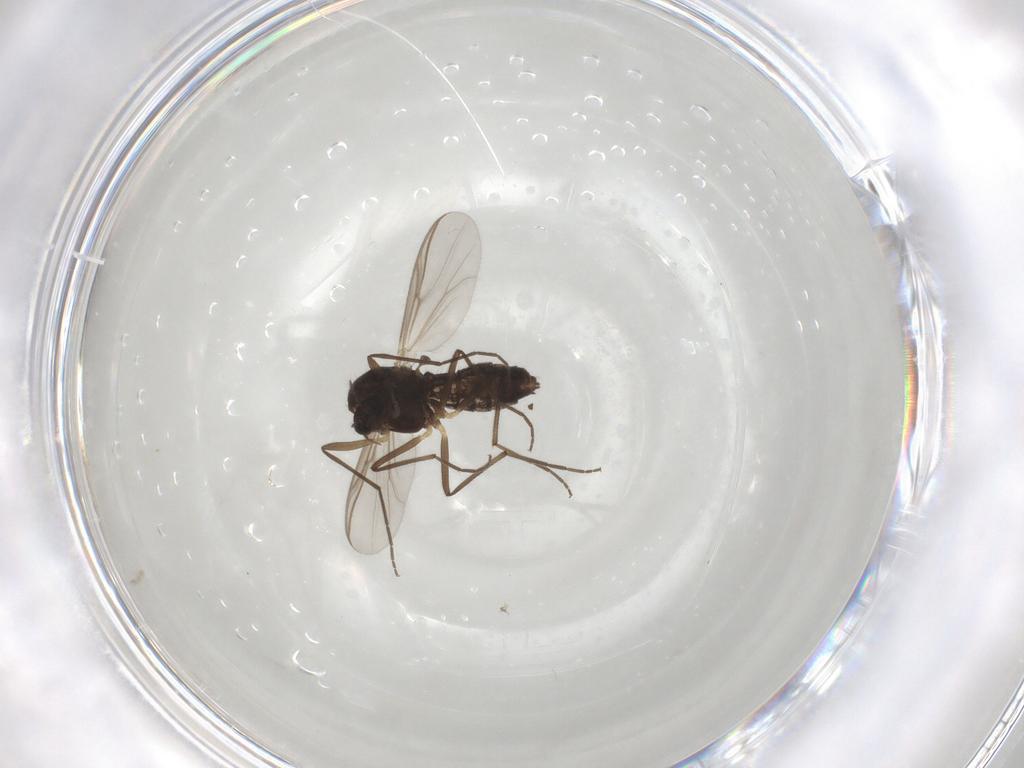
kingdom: Animalia
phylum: Arthropoda
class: Insecta
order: Diptera
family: Chironomidae
